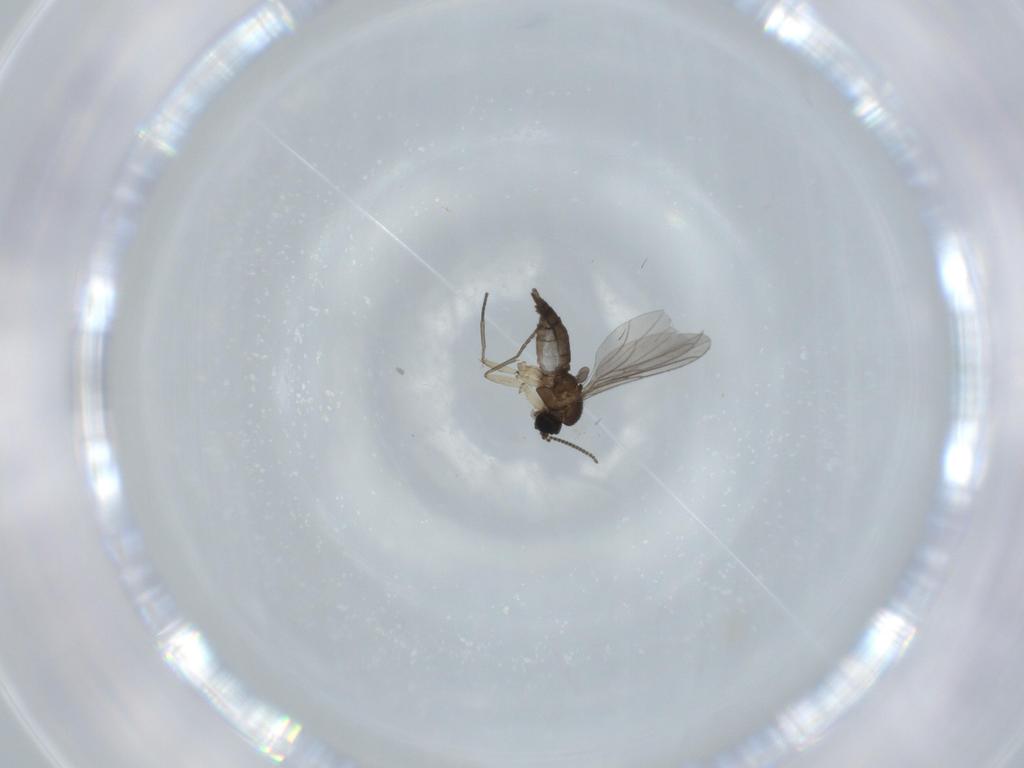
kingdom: Animalia
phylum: Arthropoda
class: Insecta
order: Diptera
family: Sciaridae
